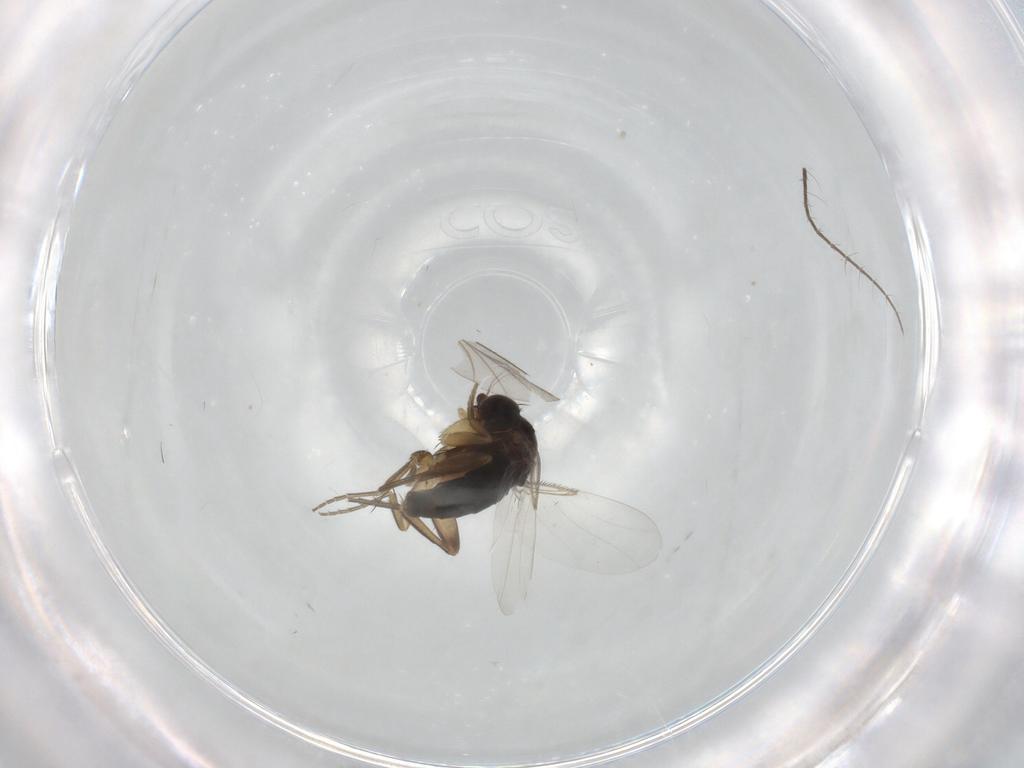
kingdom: Animalia
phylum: Arthropoda
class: Insecta
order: Diptera
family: Phoridae
